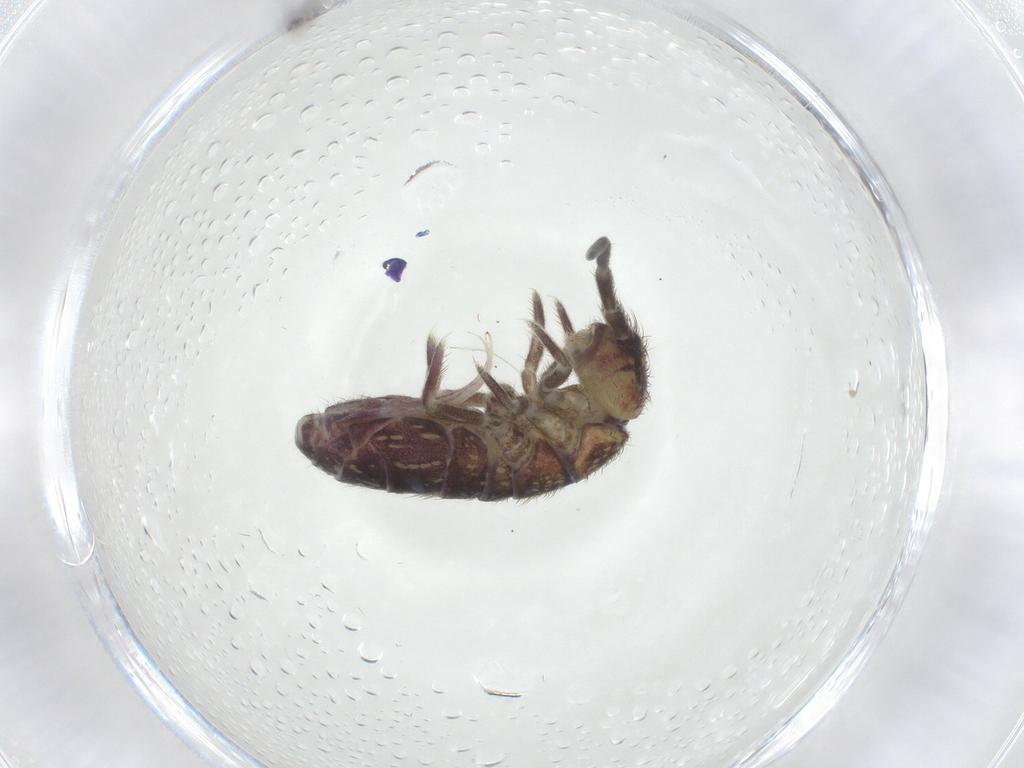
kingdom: Animalia
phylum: Arthropoda
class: Collembola
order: Entomobryomorpha
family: Isotomidae
